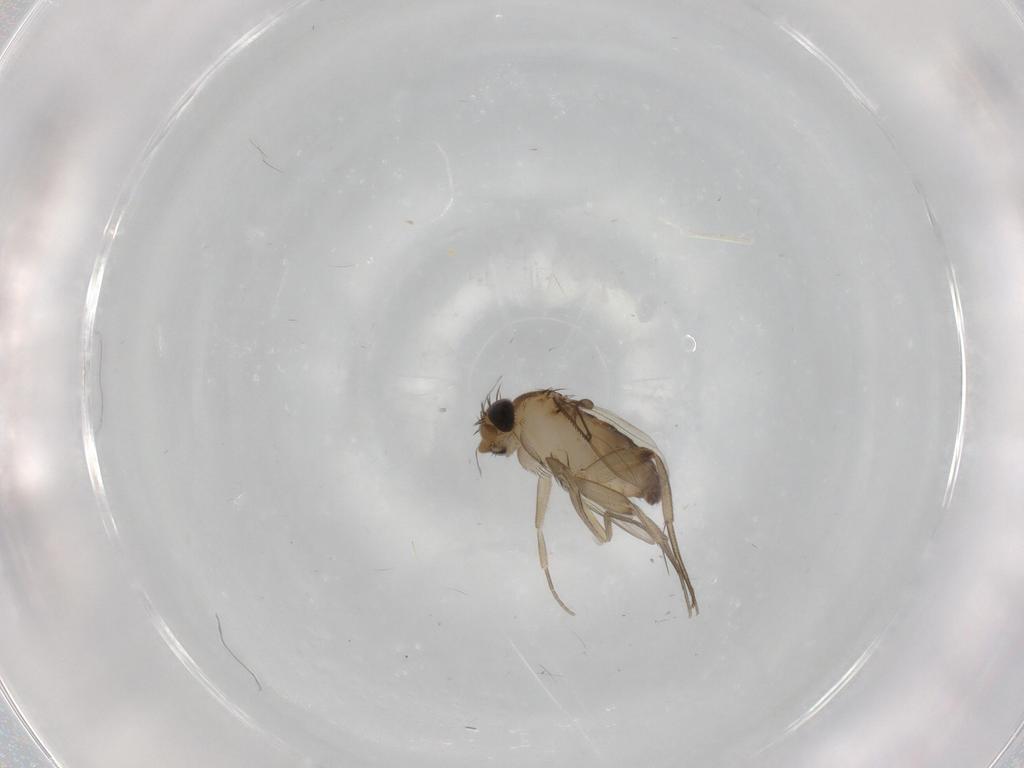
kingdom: Animalia
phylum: Arthropoda
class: Insecta
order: Diptera
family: Phoridae
